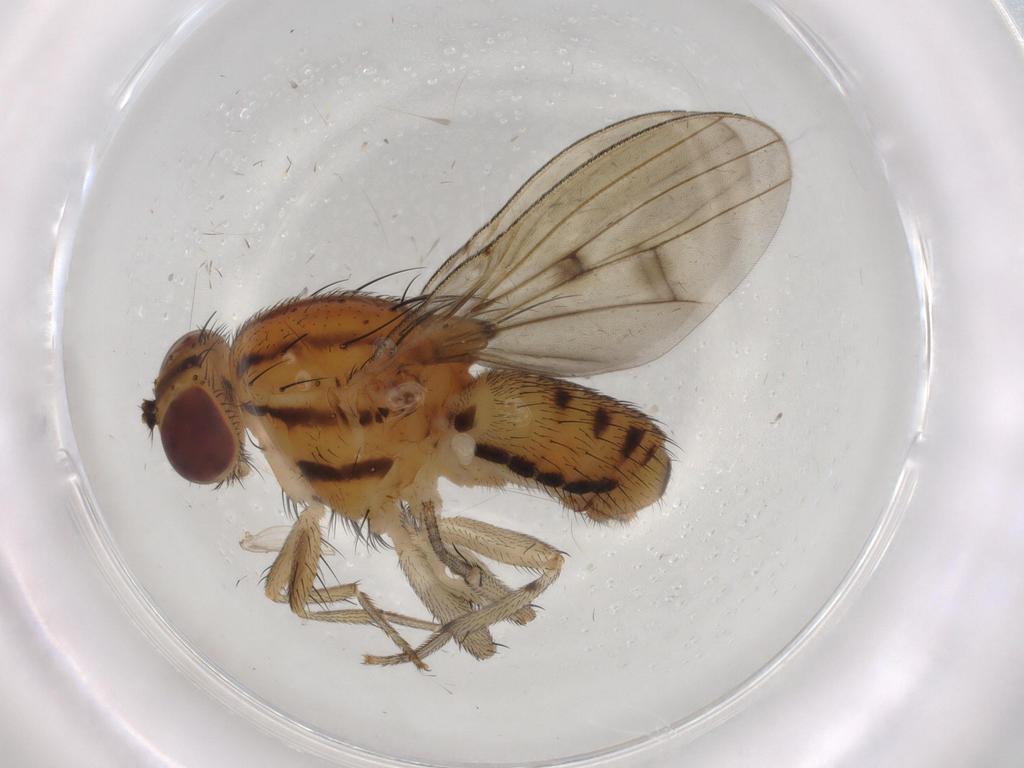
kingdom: Animalia
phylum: Arthropoda
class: Insecta
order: Diptera
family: Lauxaniidae
